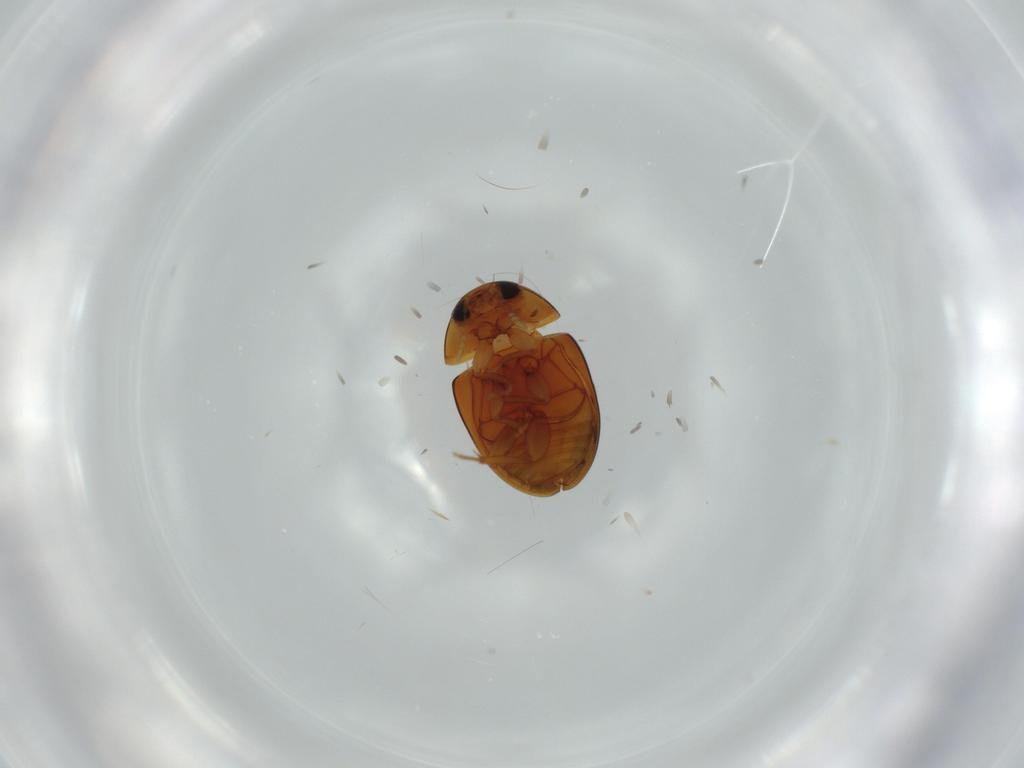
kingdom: Animalia
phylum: Arthropoda
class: Insecta
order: Coleoptera
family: Phalacridae
